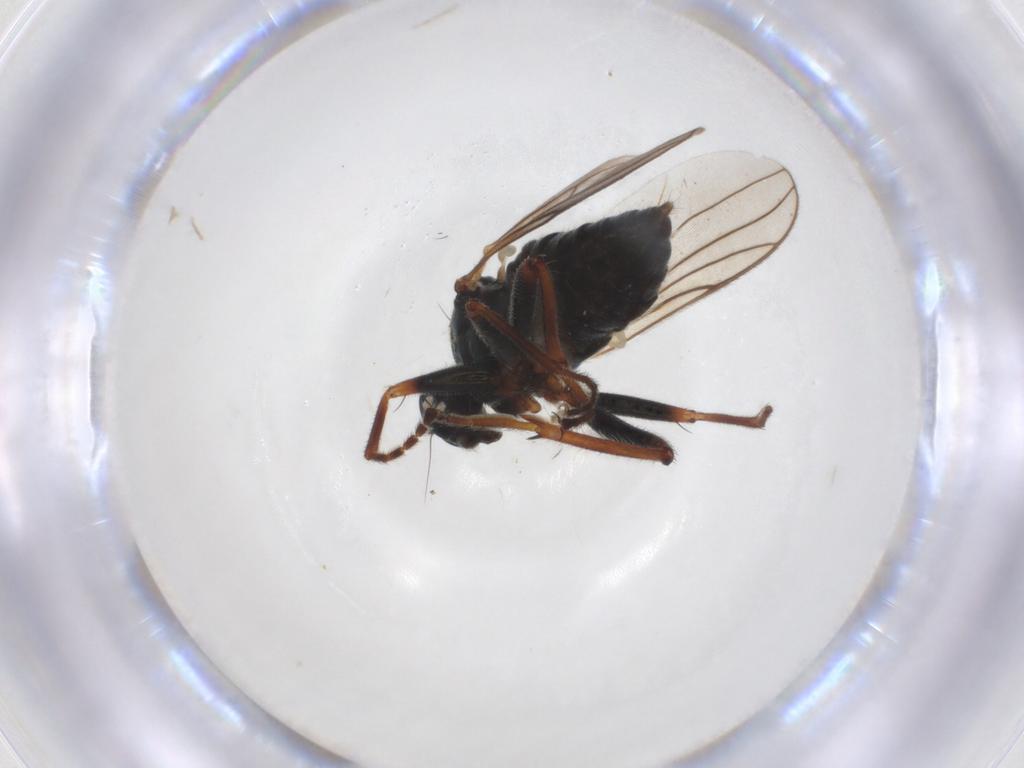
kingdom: Animalia
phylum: Arthropoda
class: Insecta
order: Diptera
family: Hybotidae
